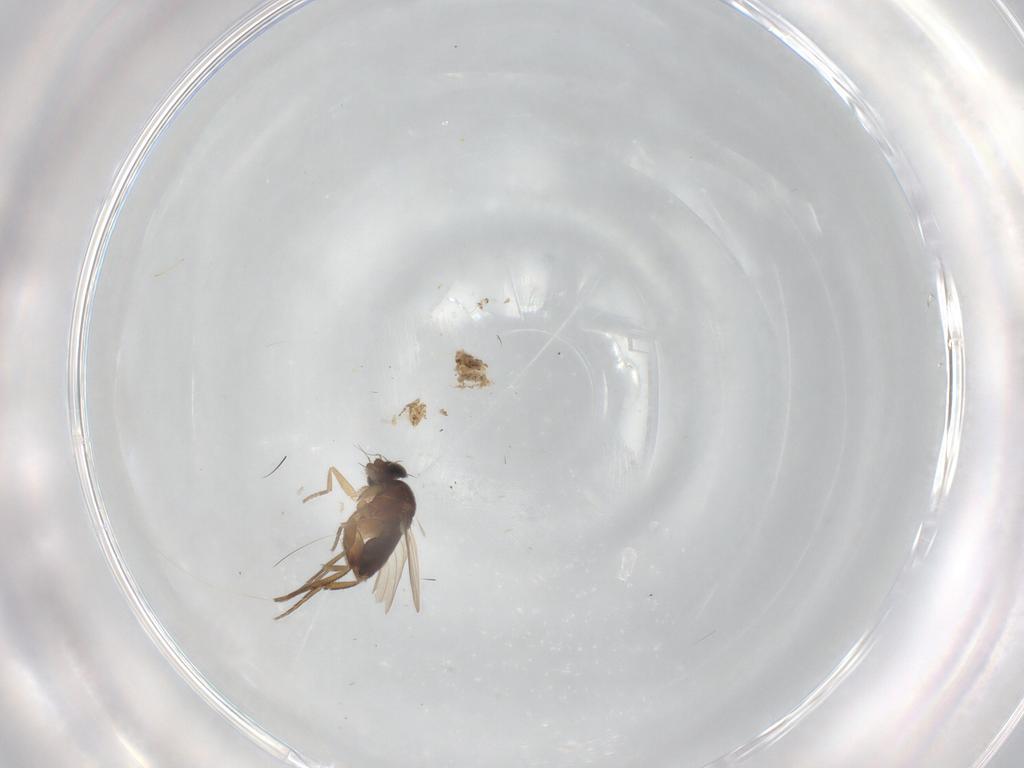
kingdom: Animalia
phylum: Arthropoda
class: Insecta
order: Diptera
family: Phoridae
